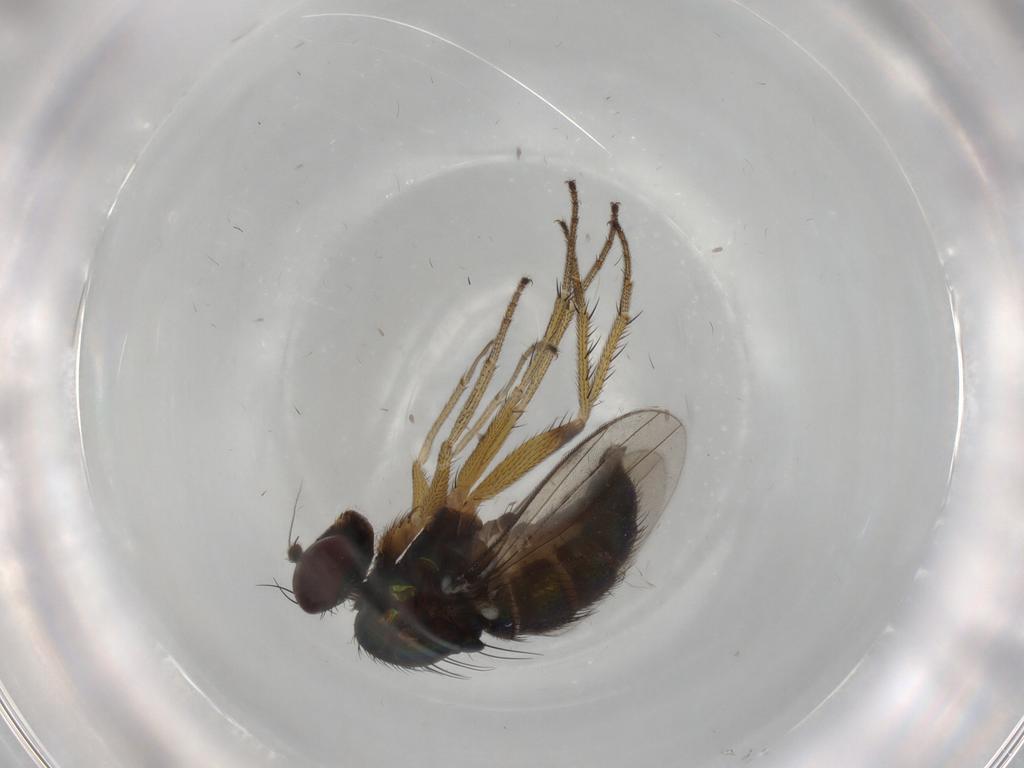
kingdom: Animalia
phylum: Arthropoda
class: Insecta
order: Diptera
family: Dolichopodidae
